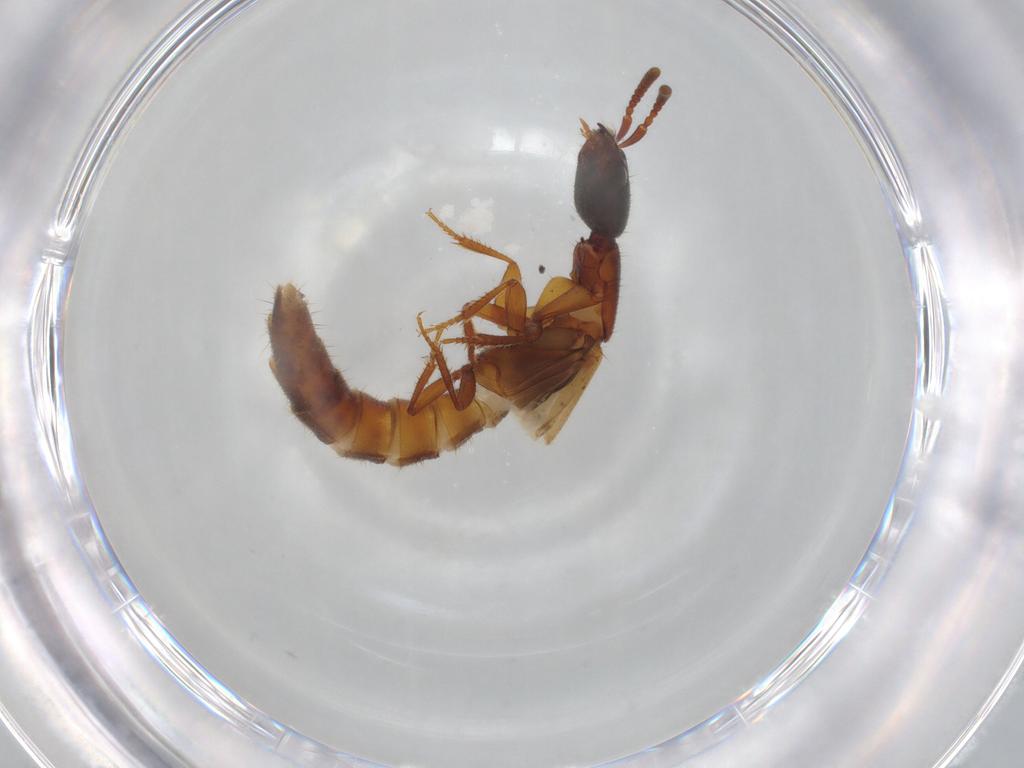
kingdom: Animalia
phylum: Arthropoda
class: Insecta
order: Coleoptera
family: Staphylinidae
